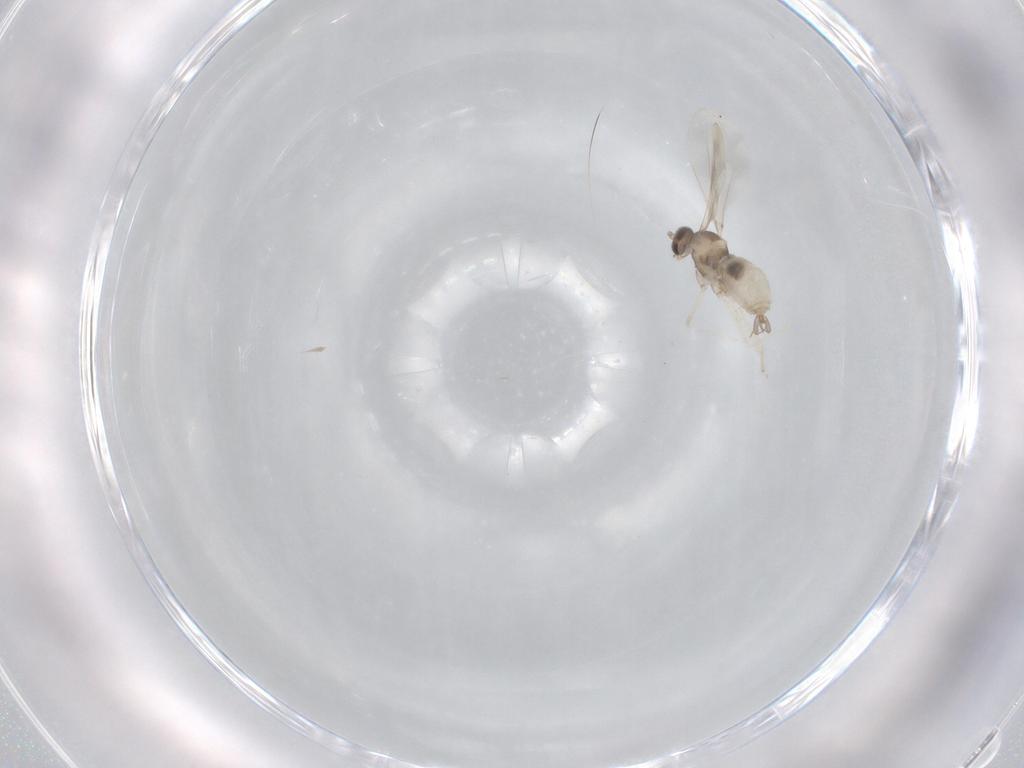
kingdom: Animalia
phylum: Arthropoda
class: Insecta
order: Diptera
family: Cecidomyiidae
